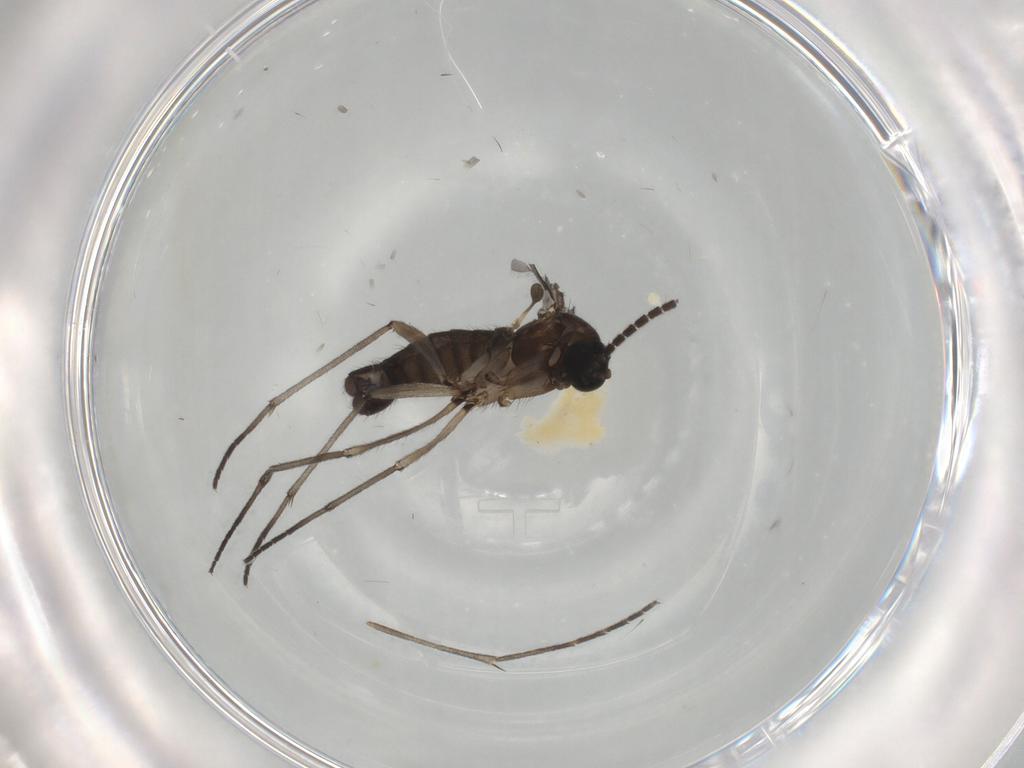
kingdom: Animalia
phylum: Arthropoda
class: Insecta
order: Diptera
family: Sciaridae
